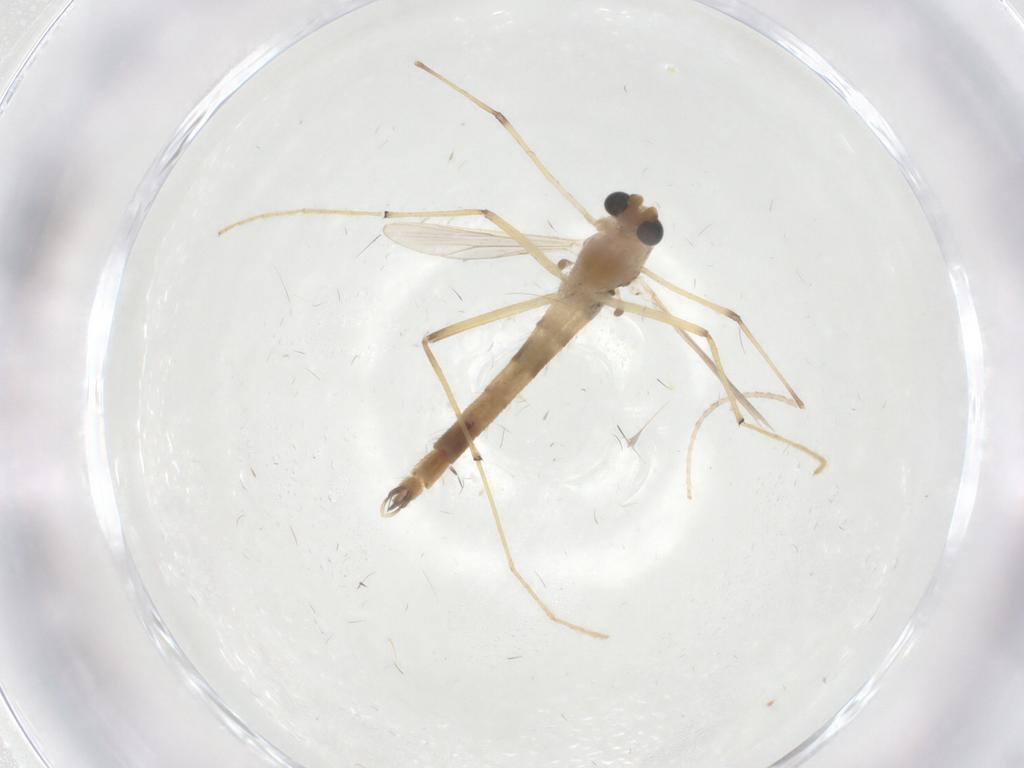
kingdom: Animalia
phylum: Arthropoda
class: Insecta
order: Diptera
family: Chironomidae
